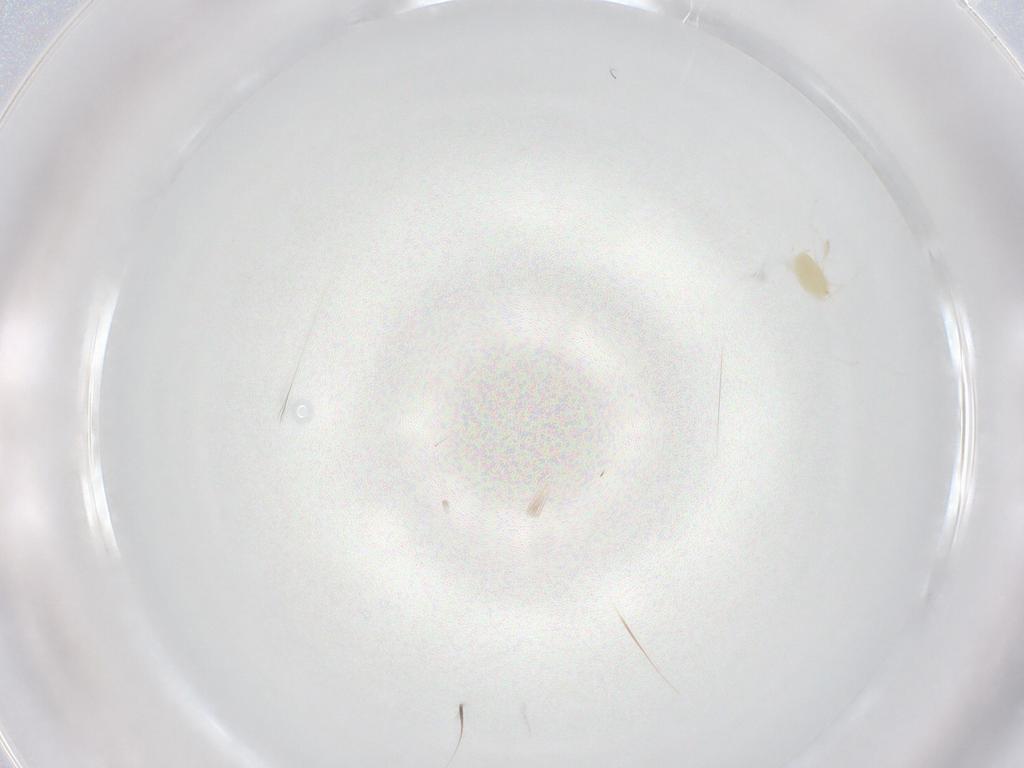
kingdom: Animalia
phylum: Arthropoda
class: Arachnida
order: Trombidiformes
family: Tetranychidae
